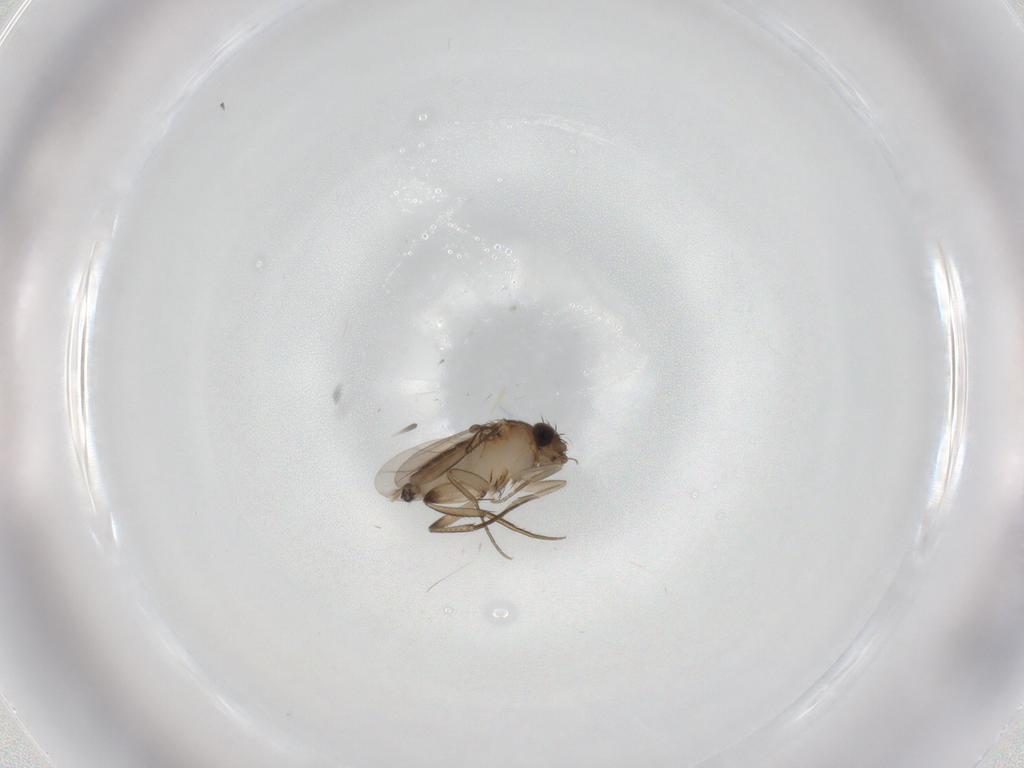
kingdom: Animalia
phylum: Arthropoda
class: Insecta
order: Diptera
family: Phoridae
